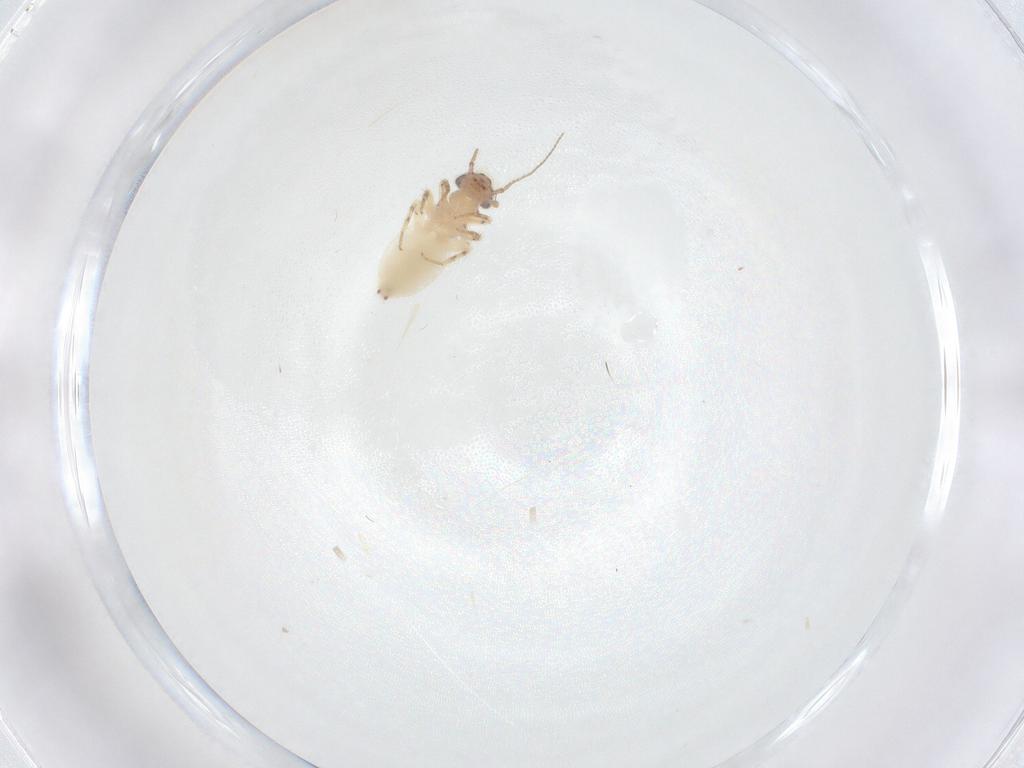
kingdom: Animalia
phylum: Arthropoda
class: Insecta
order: Psocodea
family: Lepidopsocidae
